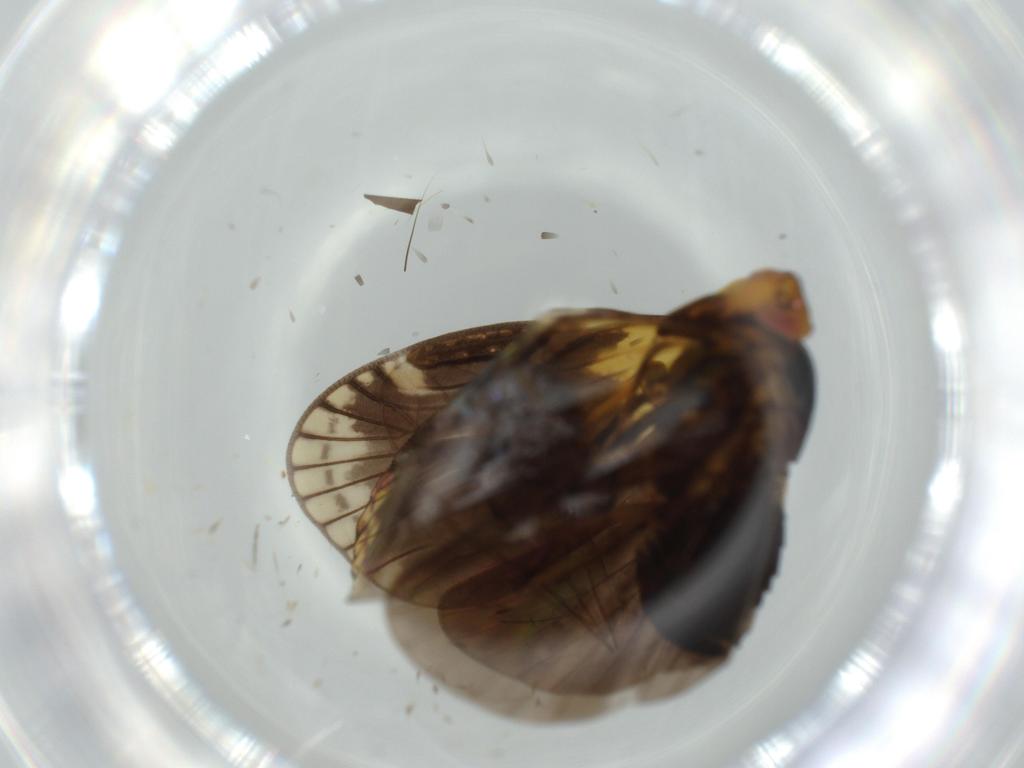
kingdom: Animalia
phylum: Arthropoda
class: Insecta
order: Hemiptera
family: Cixiidae
